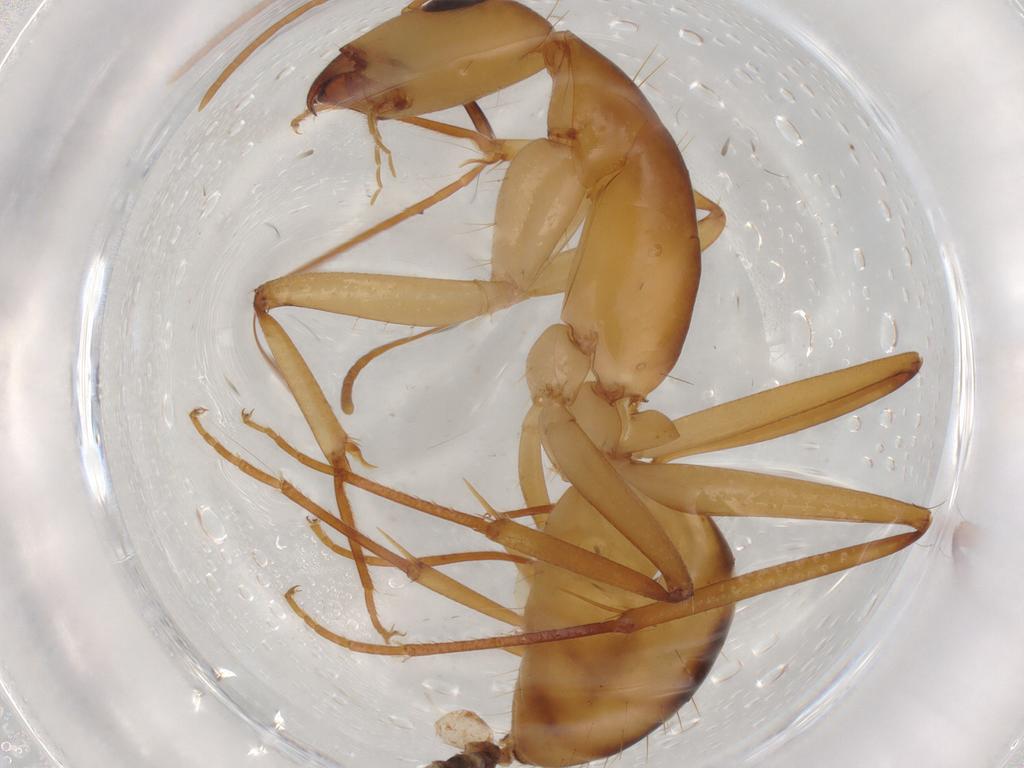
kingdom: Animalia
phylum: Arthropoda
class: Insecta
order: Hymenoptera
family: Formicidae
